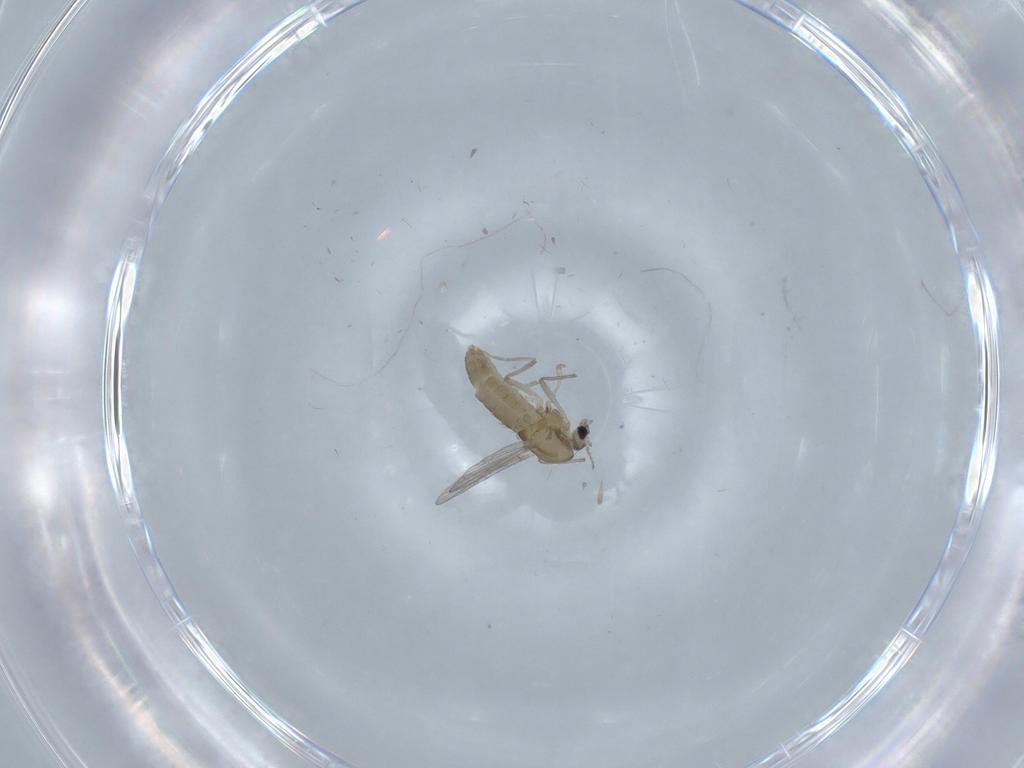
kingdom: Animalia
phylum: Arthropoda
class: Insecta
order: Diptera
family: Chironomidae
